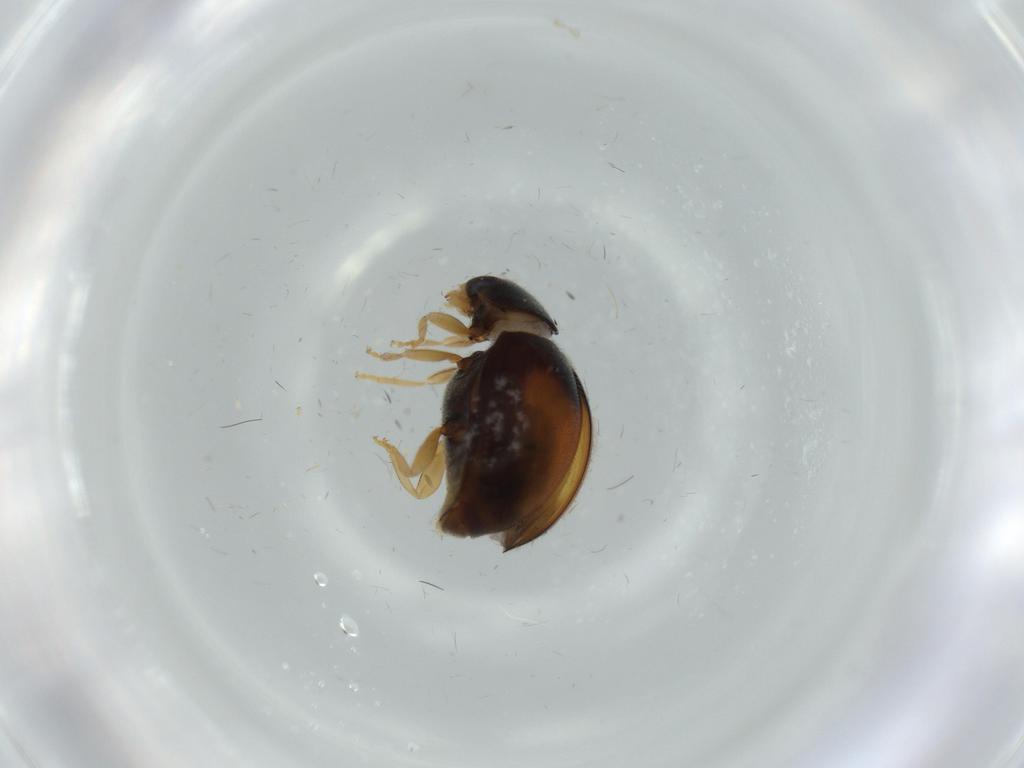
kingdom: Animalia
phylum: Arthropoda
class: Insecta
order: Coleoptera
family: Coccinellidae
